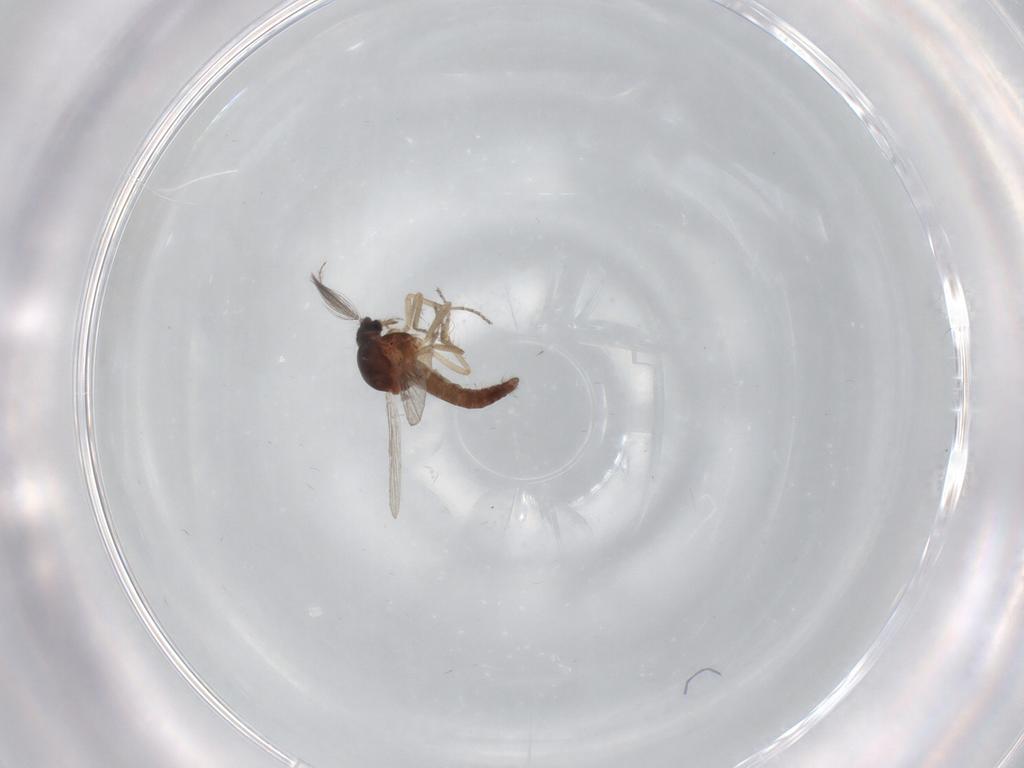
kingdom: Animalia
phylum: Arthropoda
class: Insecta
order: Diptera
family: Ceratopogonidae
